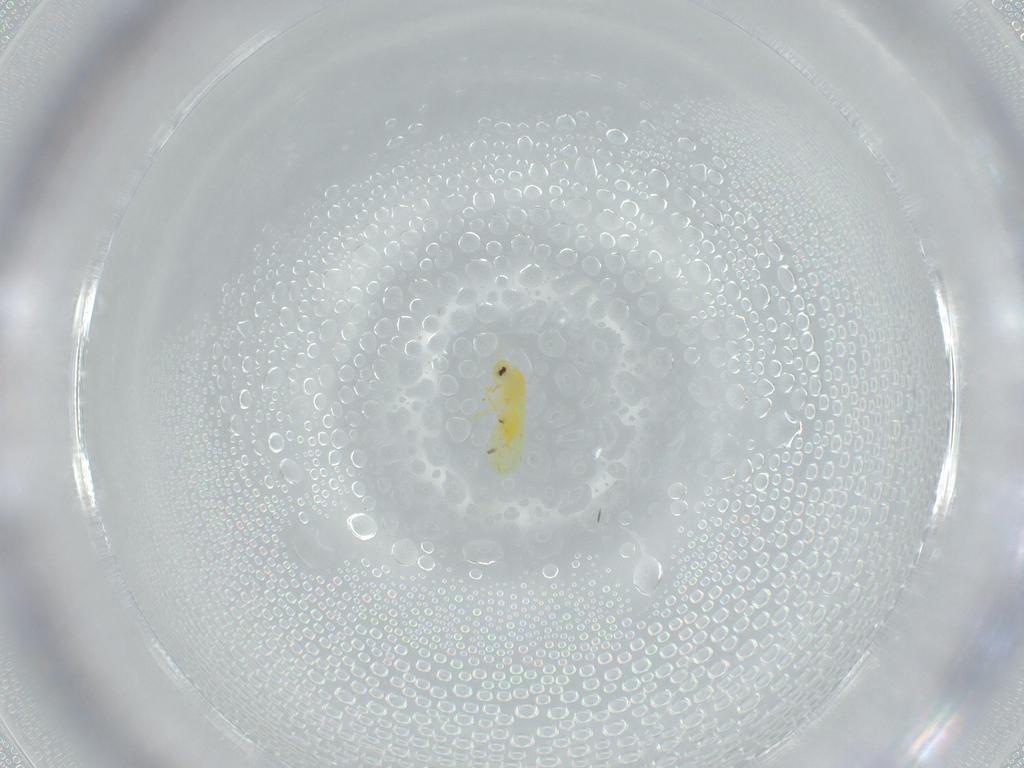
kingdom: Animalia
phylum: Arthropoda
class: Insecta
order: Hemiptera
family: Aleyrodidae
